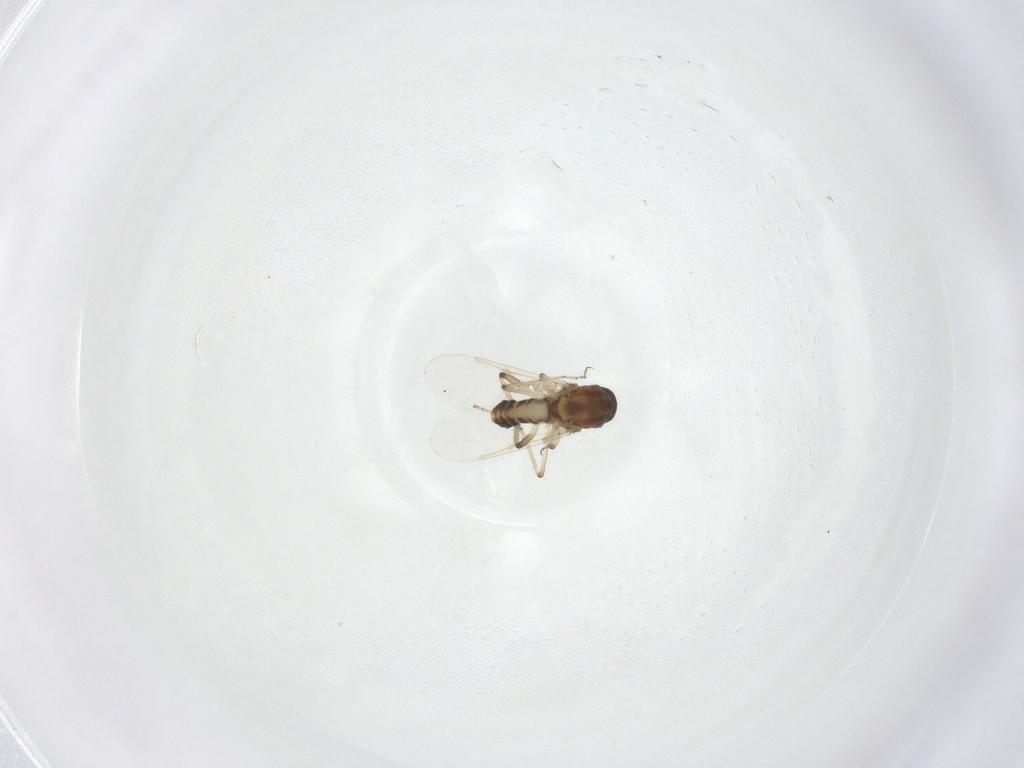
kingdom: Animalia
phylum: Arthropoda
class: Insecta
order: Diptera
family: Ceratopogonidae
